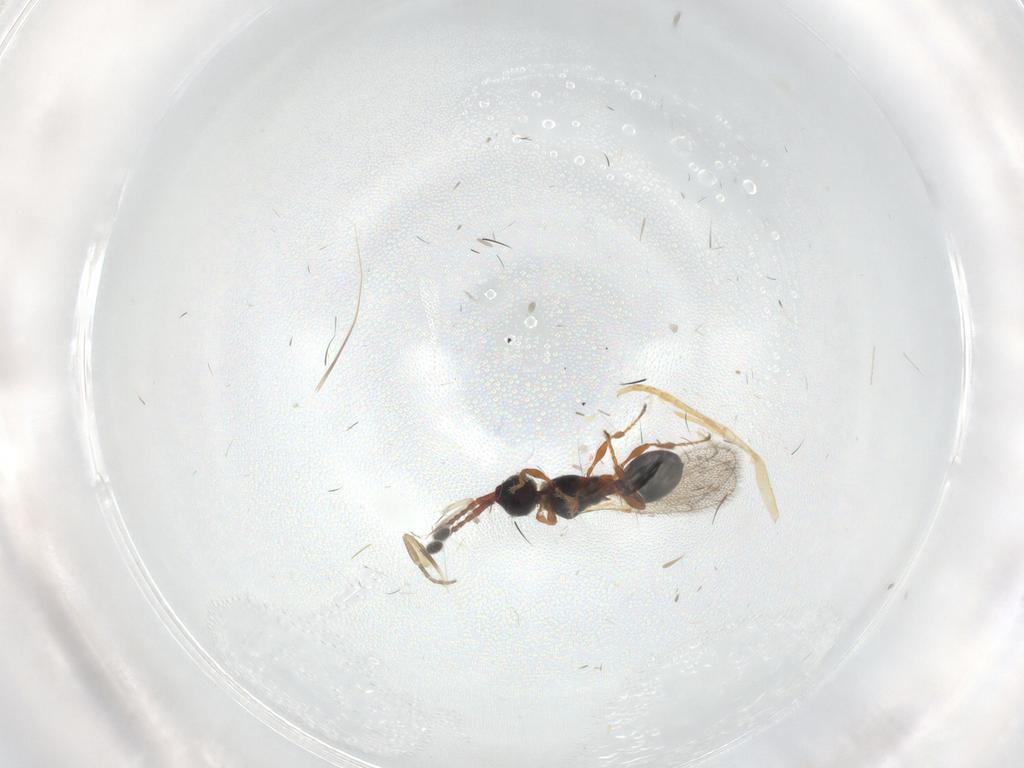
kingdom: Animalia
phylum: Arthropoda
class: Insecta
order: Hymenoptera
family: Diapriidae
